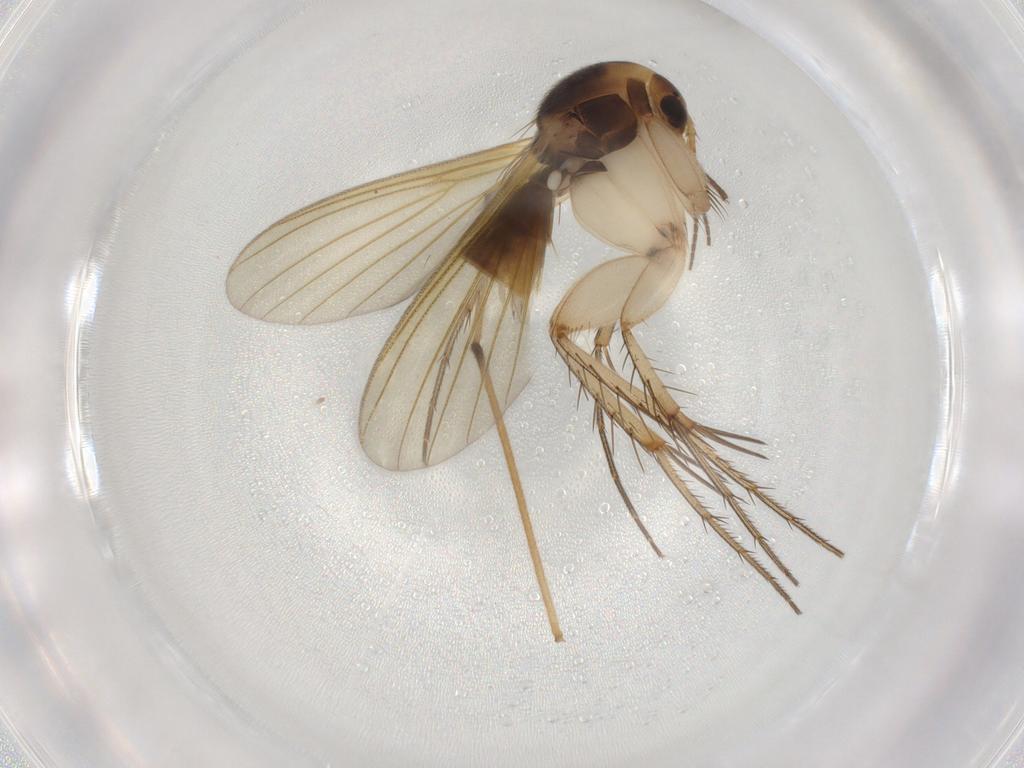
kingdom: Animalia
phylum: Arthropoda
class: Insecta
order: Diptera
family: Mycetophilidae
